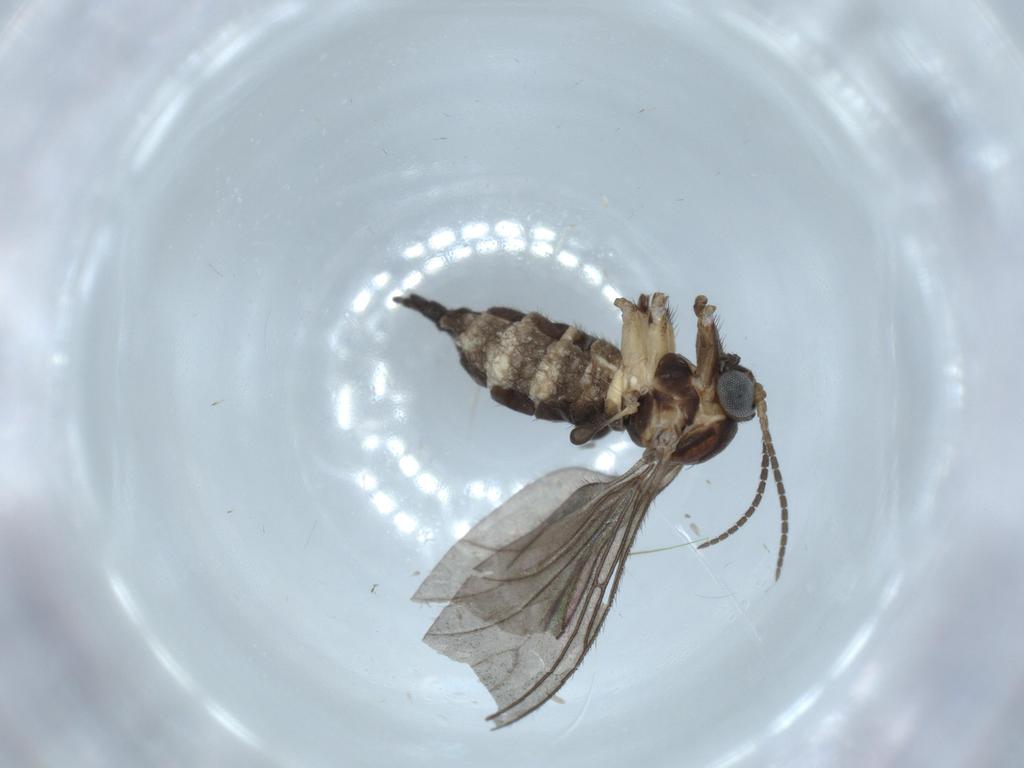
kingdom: Animalia
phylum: Arthropoda
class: Insecta
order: Diptera
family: Sciaridae
